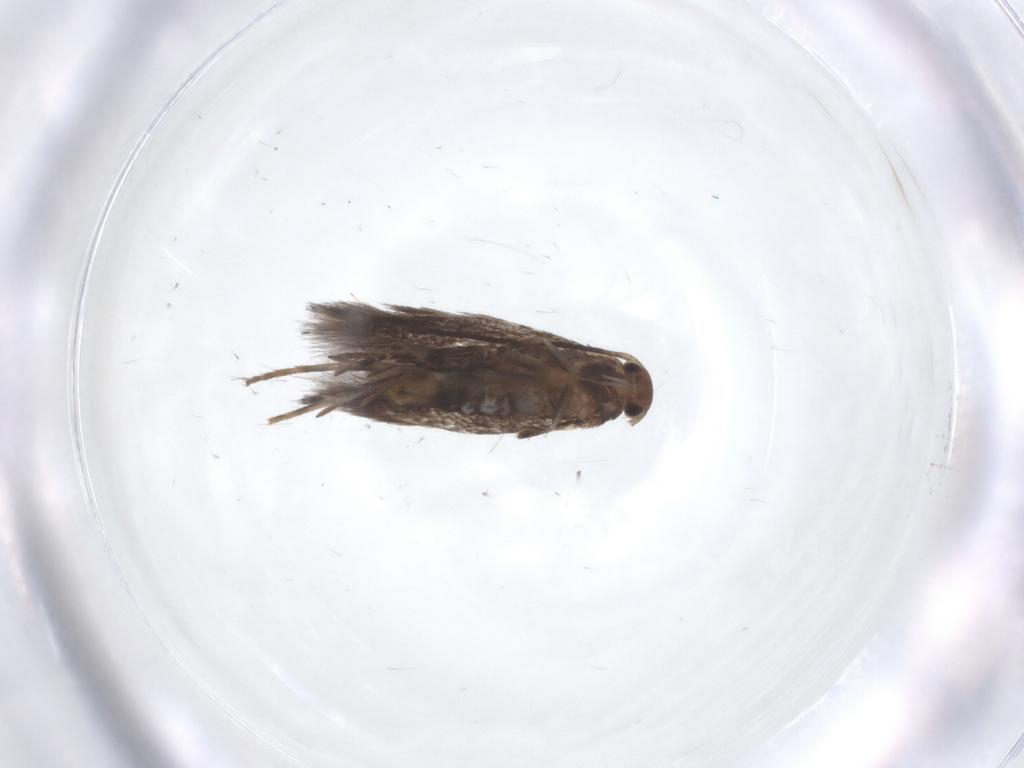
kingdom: Animalia
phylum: Arthropoda
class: Insecta
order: Lepidoptera
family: Elachistidae
